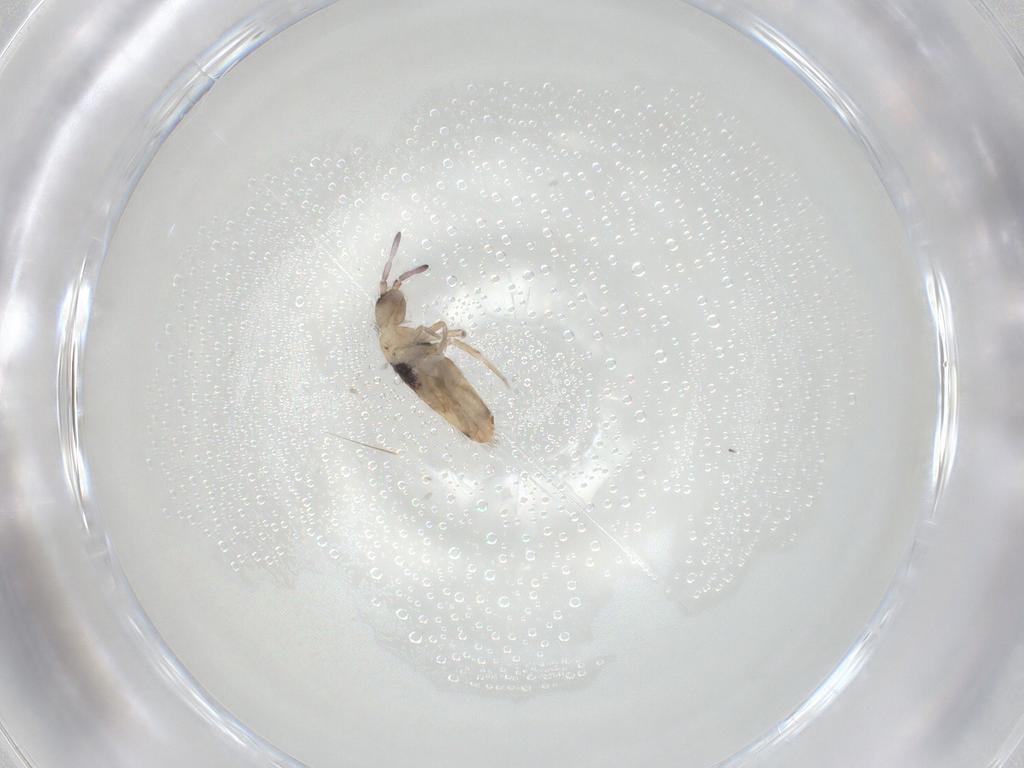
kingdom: Animalia
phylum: Arthropoda
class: Collembola
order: Entomobryomorpha
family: Entomobryidae
